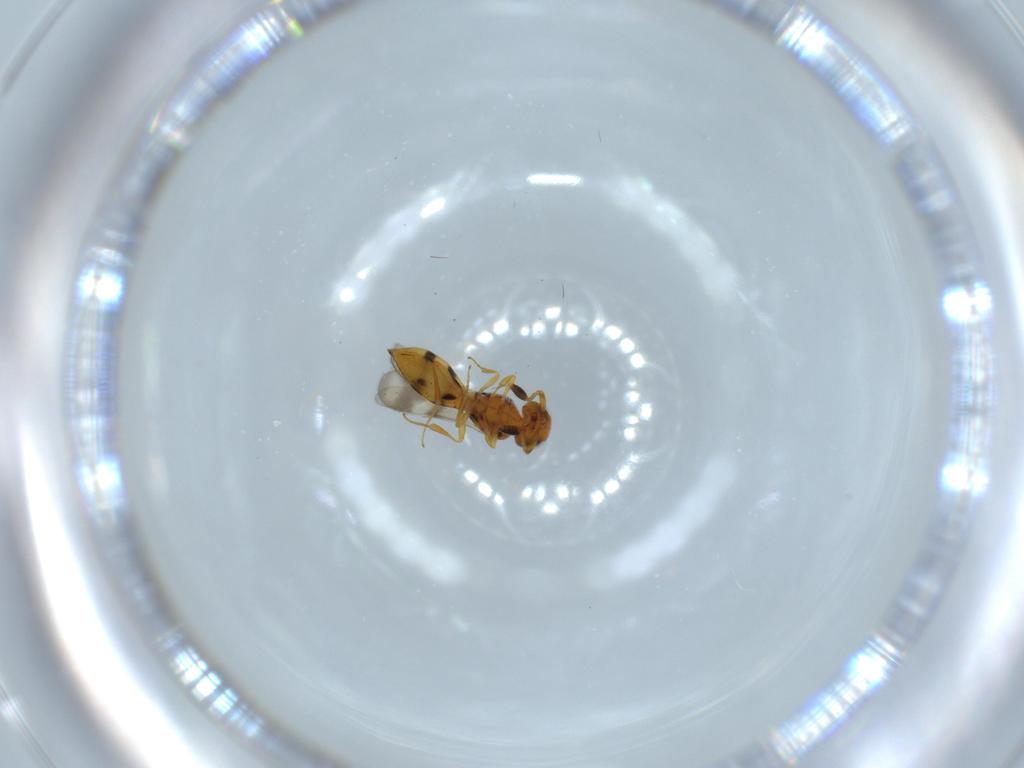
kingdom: Animalia
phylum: Arthropoda
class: Insecta
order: Hymenoptera
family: Scelionidae
